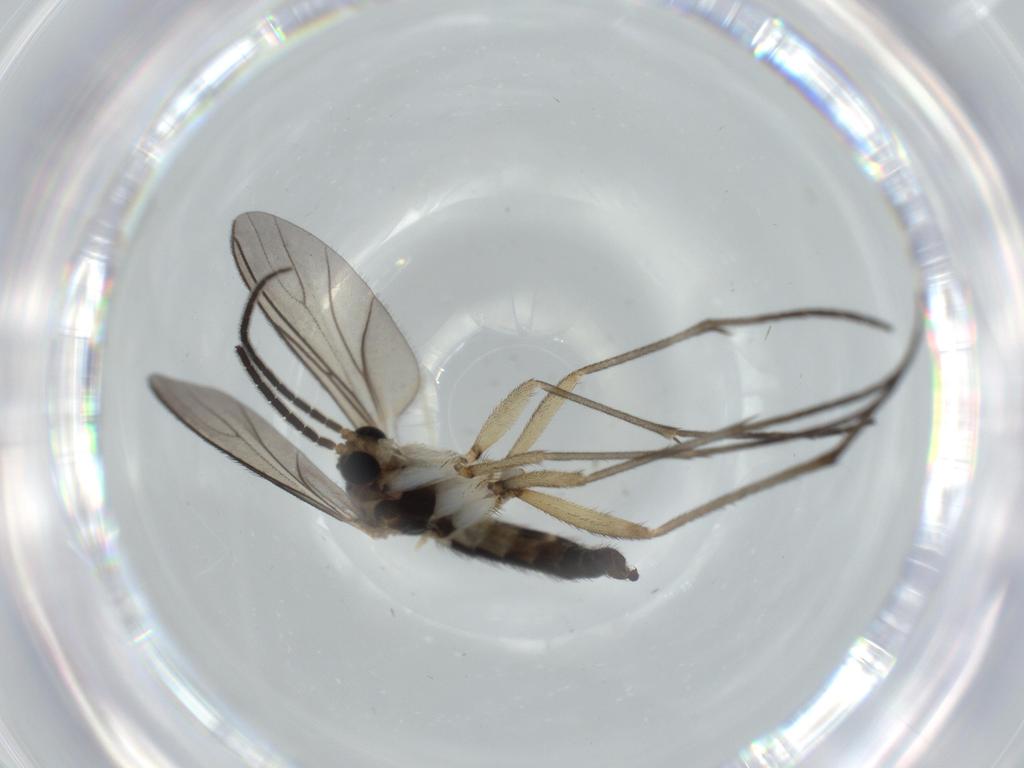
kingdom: Animalia
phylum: Arthropoda
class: Insecta
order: Diptera
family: Sciaridae
